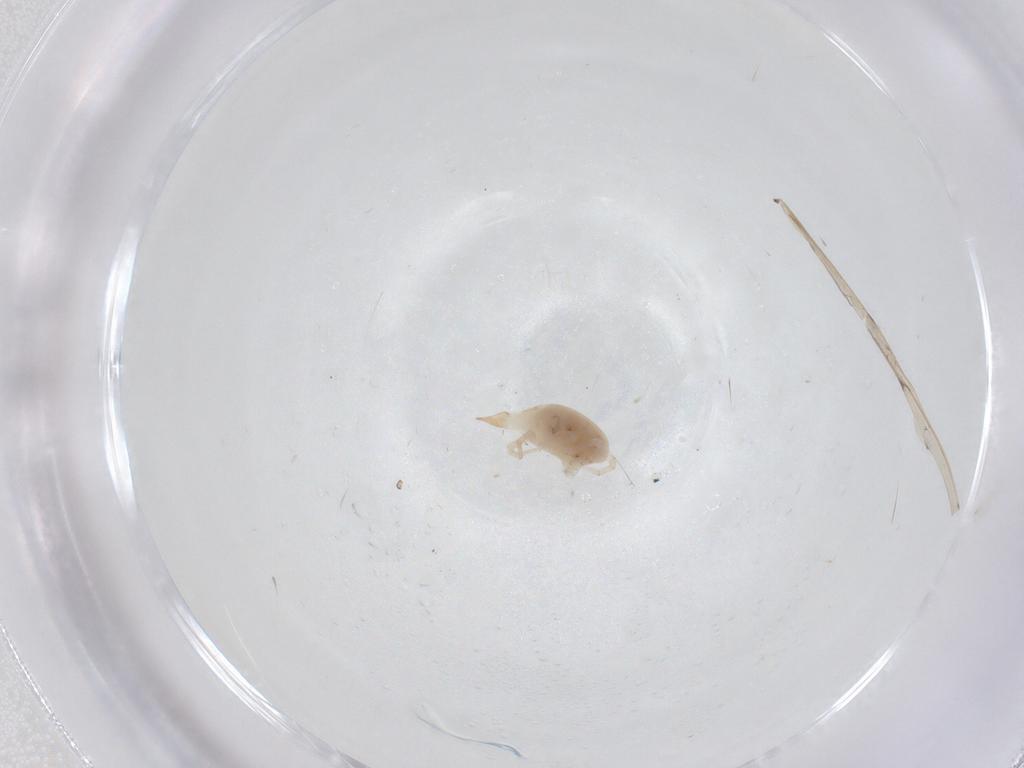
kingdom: Animalia
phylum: Arthropoda
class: Arachnida
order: Trombidiformes
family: Bdellidae
